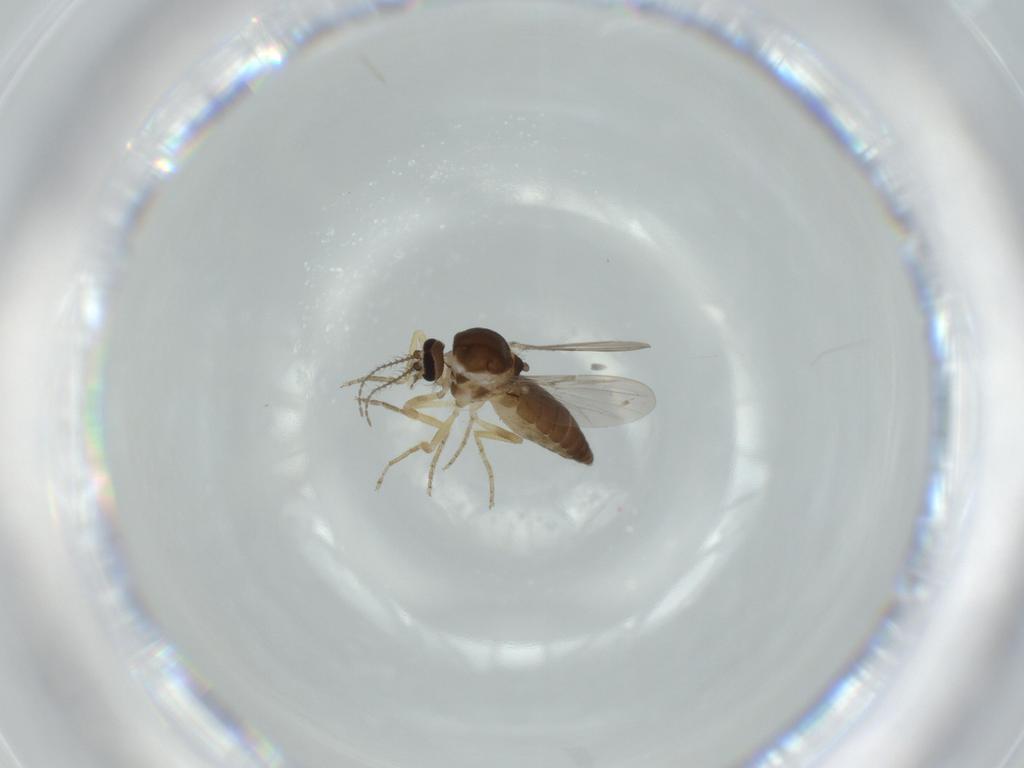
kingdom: Animalia
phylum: Arthropoda
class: Insecta
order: Diptera
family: Ceratopogonidae
